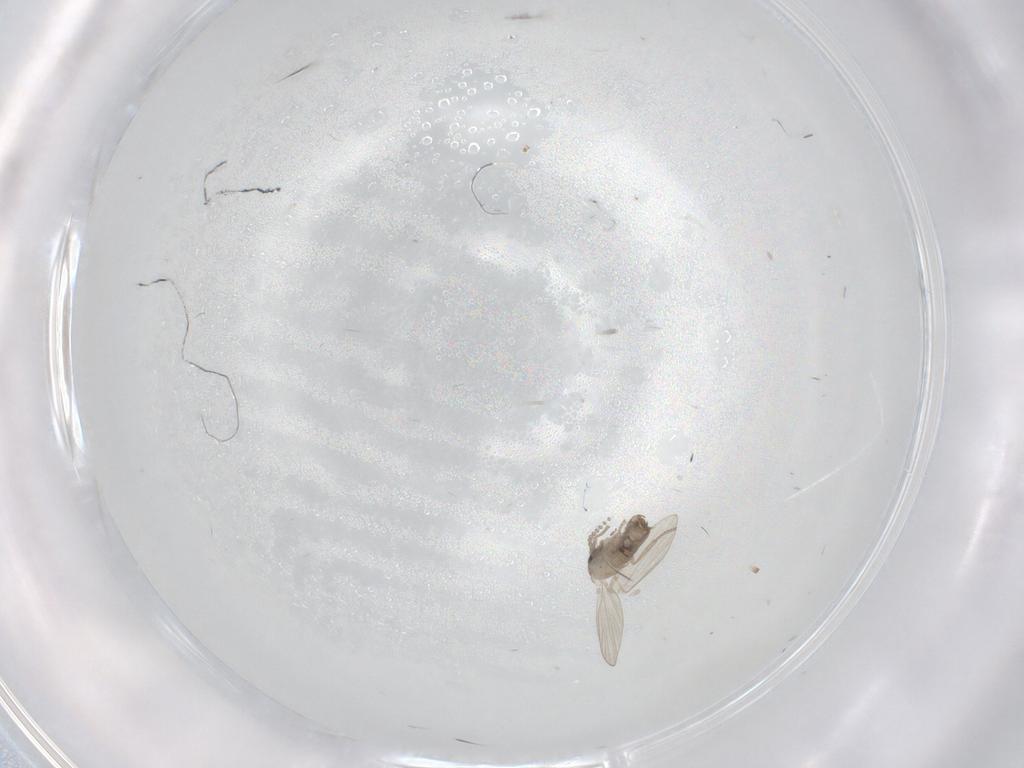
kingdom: Animalia
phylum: Arthropoda
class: Insecta
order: Diptera
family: Psychodidae
